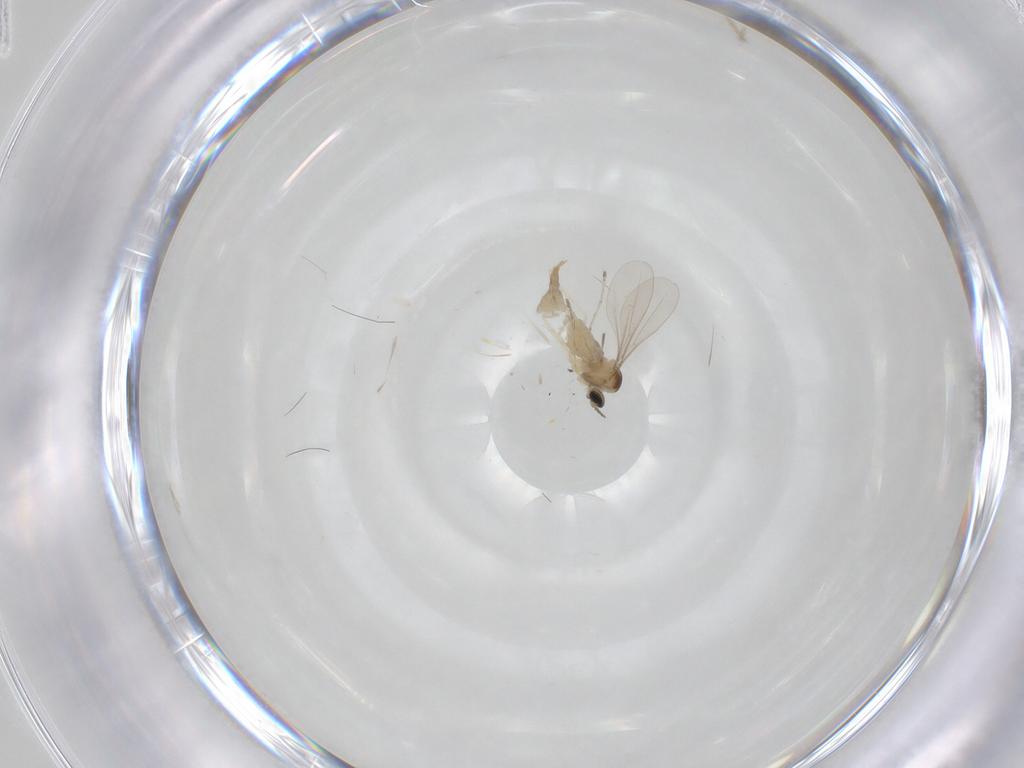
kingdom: Animalia
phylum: Arthropoda
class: Insecta
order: Diptera
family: Cecidomyiidae
